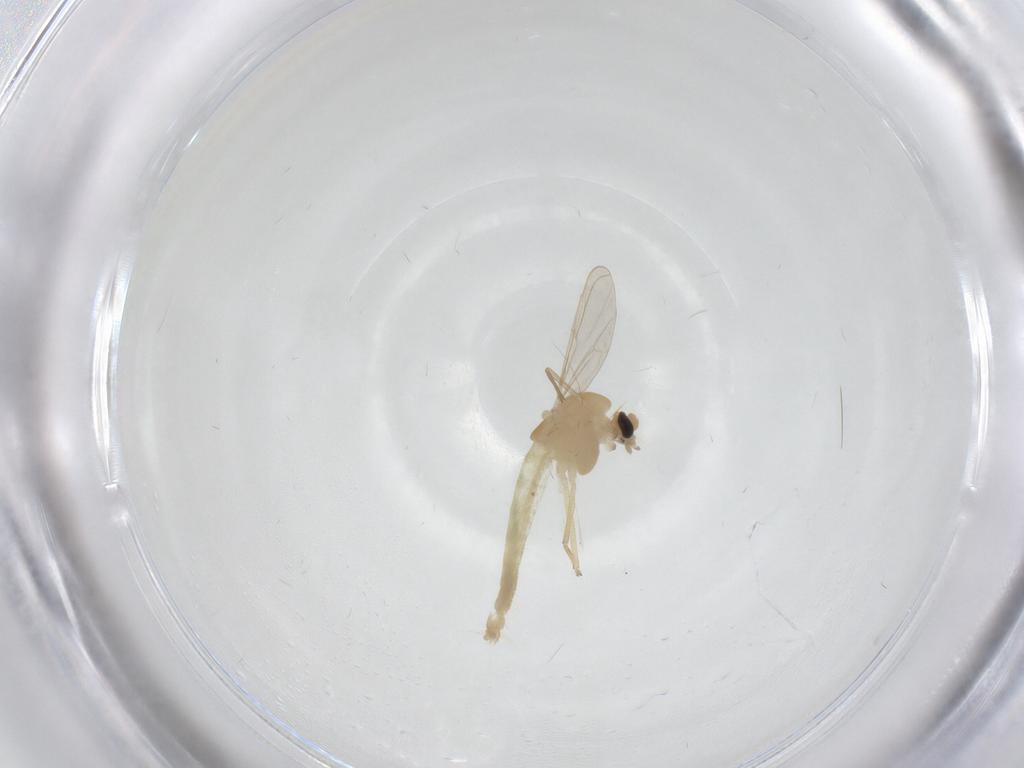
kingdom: Animalia
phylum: Arthropoda
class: Insecta
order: Diptera
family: Chironomidae
